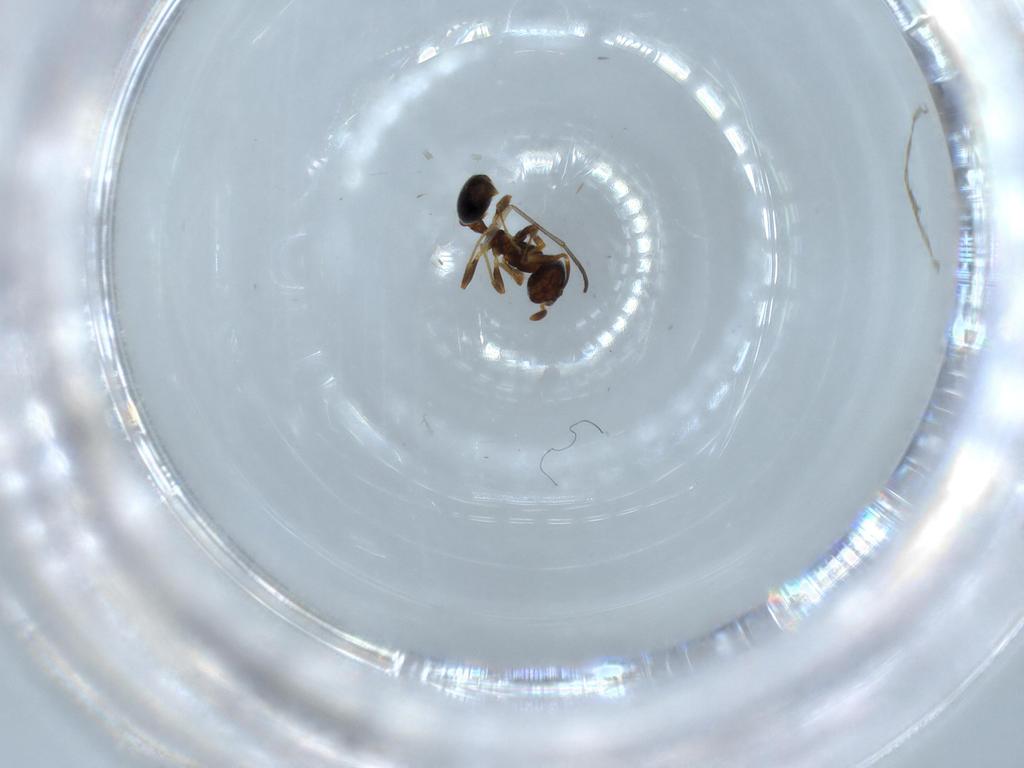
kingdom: Animalia
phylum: Arthropoda
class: Insecta
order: Hymenoptera
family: Formicidae
